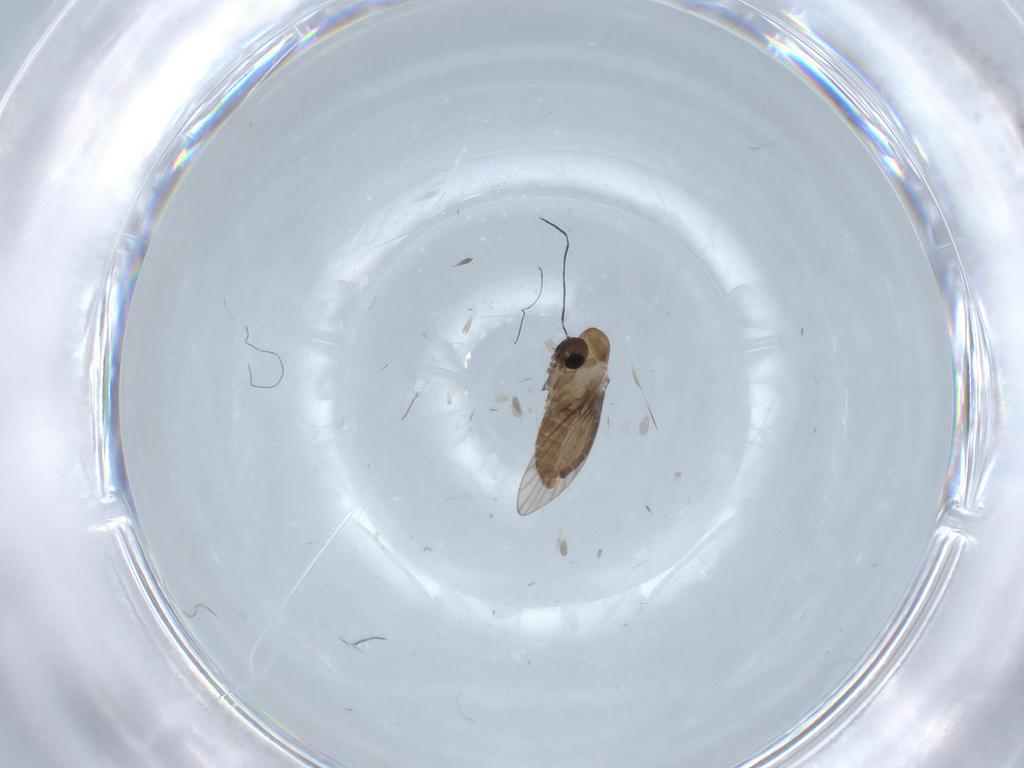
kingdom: Animalia
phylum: Arthropoda
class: Insecta
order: Diptera
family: Psychodidae
